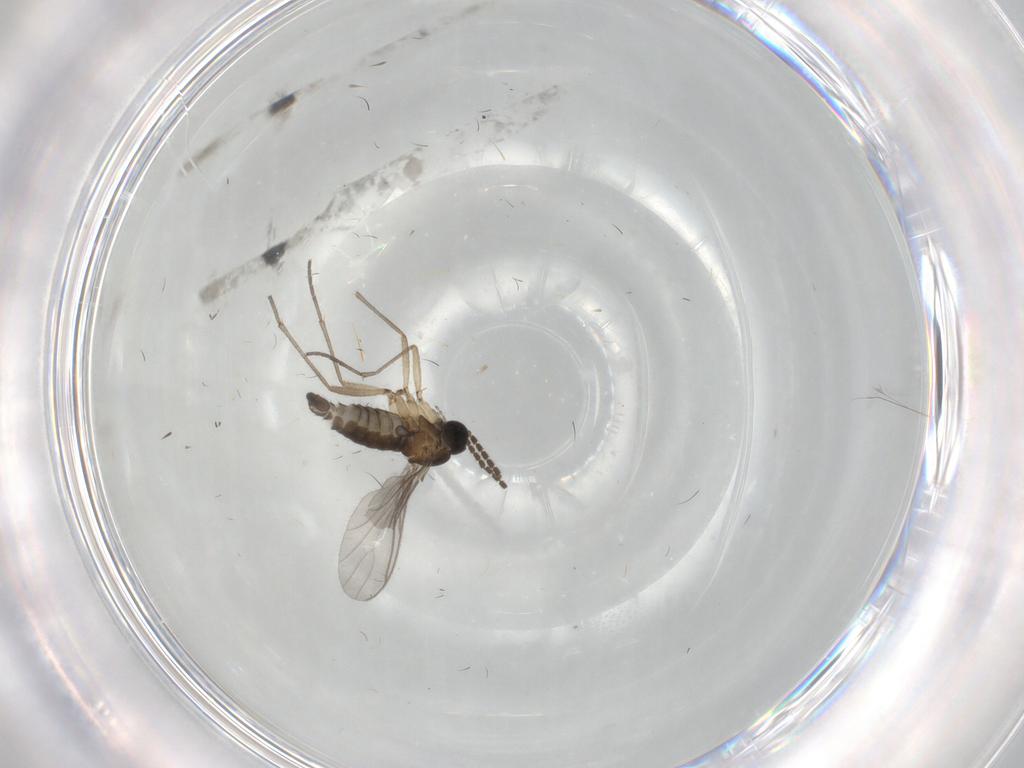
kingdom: Animalia
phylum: Arthropoda
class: Insecta
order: Diptera
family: Sciaridae
